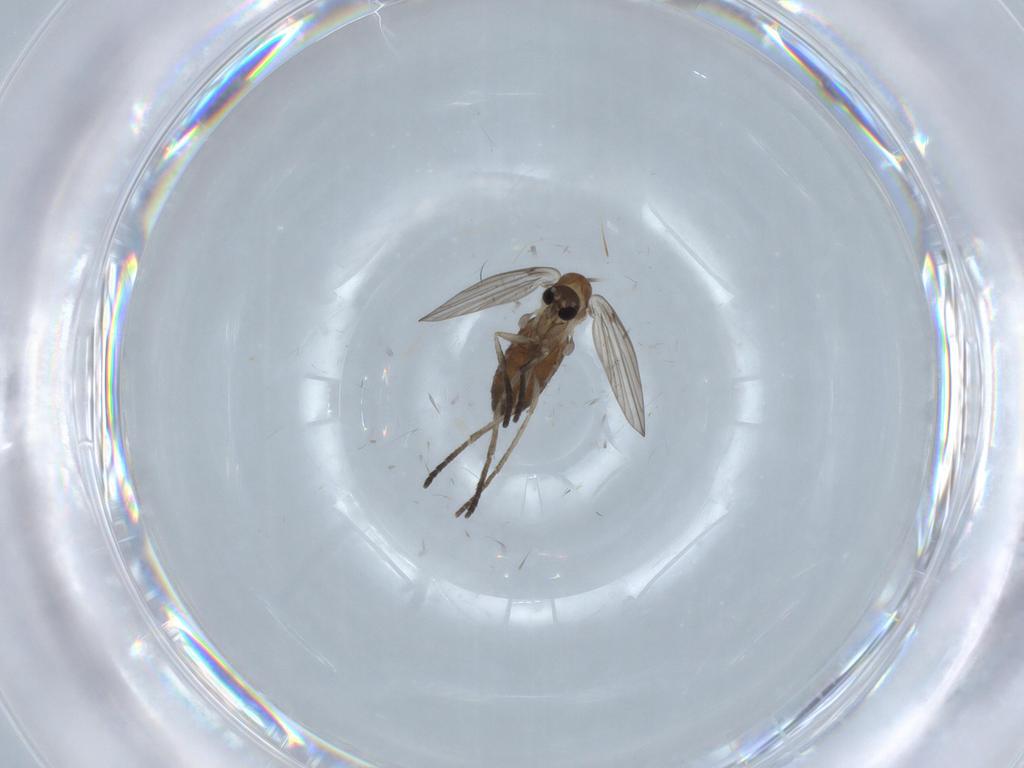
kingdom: Animalia
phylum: Arthropoda
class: Insecta
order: Diptera
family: Psychodidae
